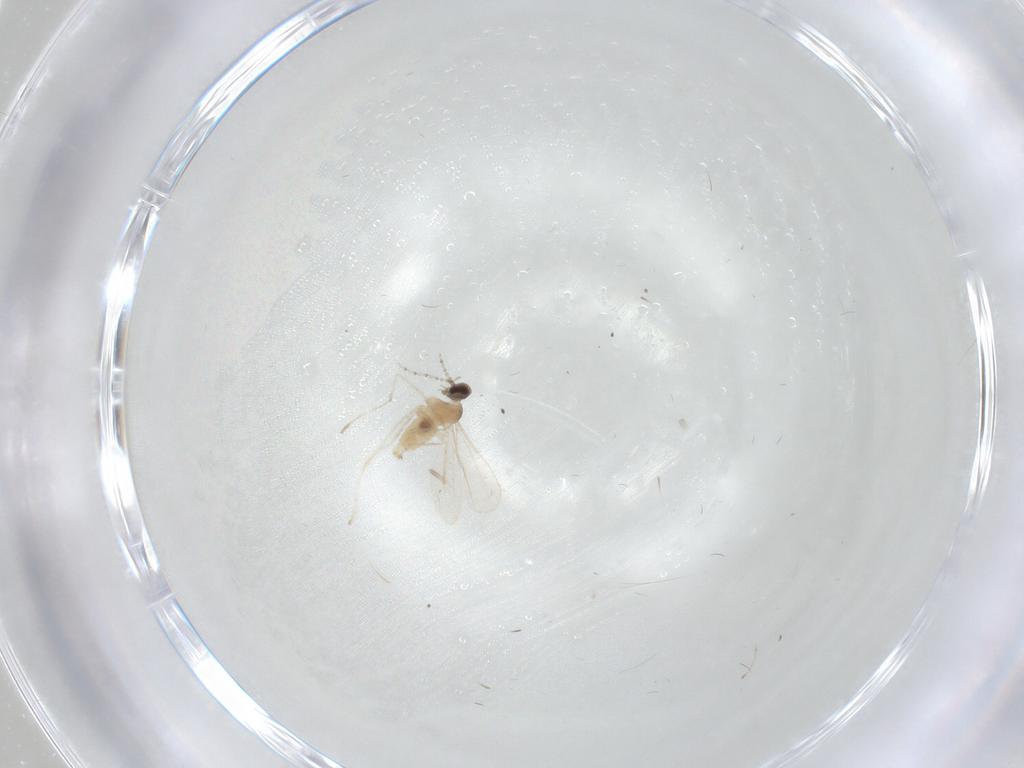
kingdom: Animalia
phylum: Arthropoda
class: Insecta
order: Diptera
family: Cecidomyiidae
